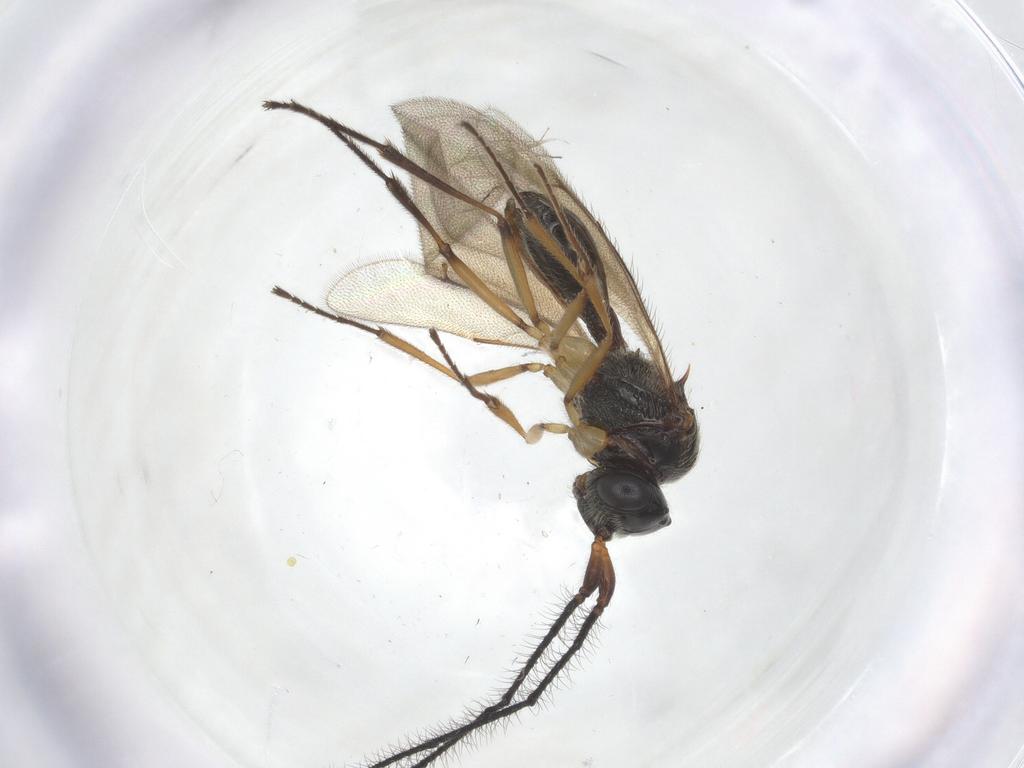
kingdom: Animalia
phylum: Arthropoda
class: Insecta
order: Hymenoptera
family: Scelionidae
